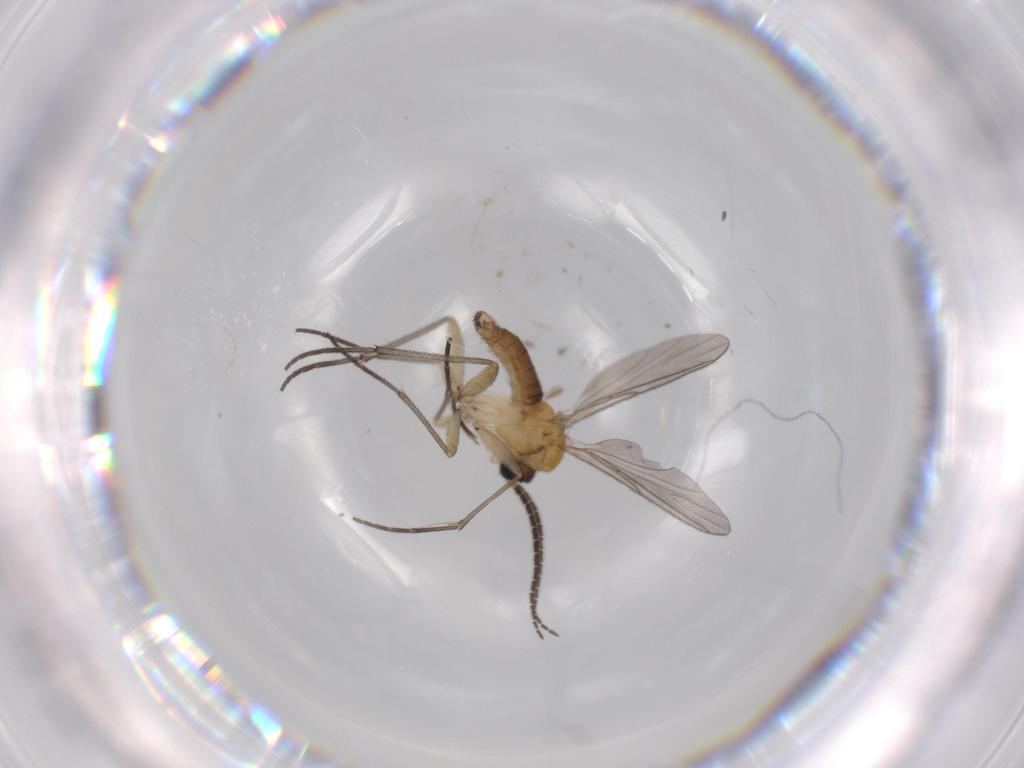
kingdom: Animalia
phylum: Arthropoda
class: Insecta
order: Diptera
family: Sciaridae
